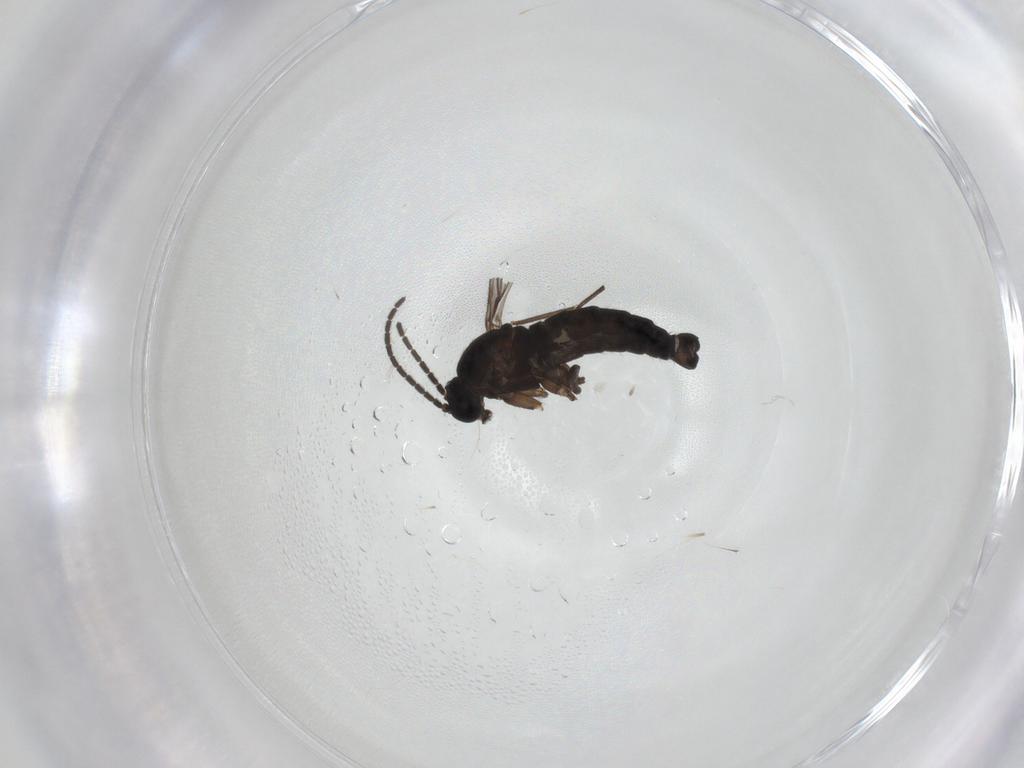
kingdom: Animalia
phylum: Arthropoda
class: Insecta
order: Diptera
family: Sciaridae
